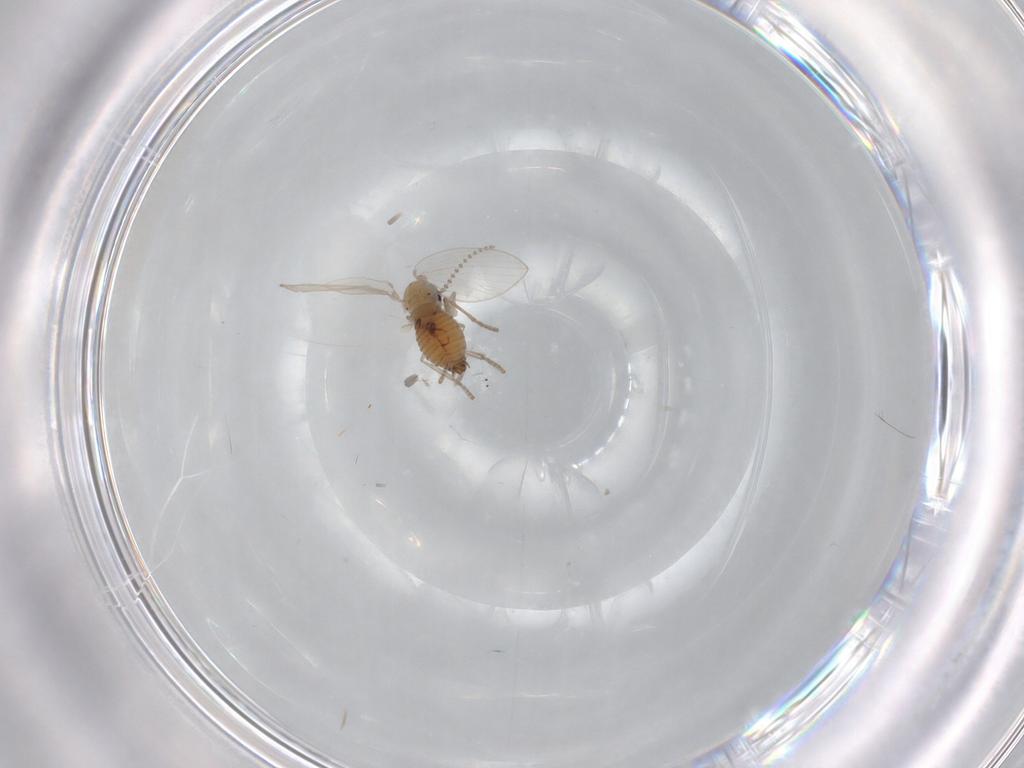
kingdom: Animalia
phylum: Arthropoda
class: Insecta
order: Diptera
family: Psychodidae
